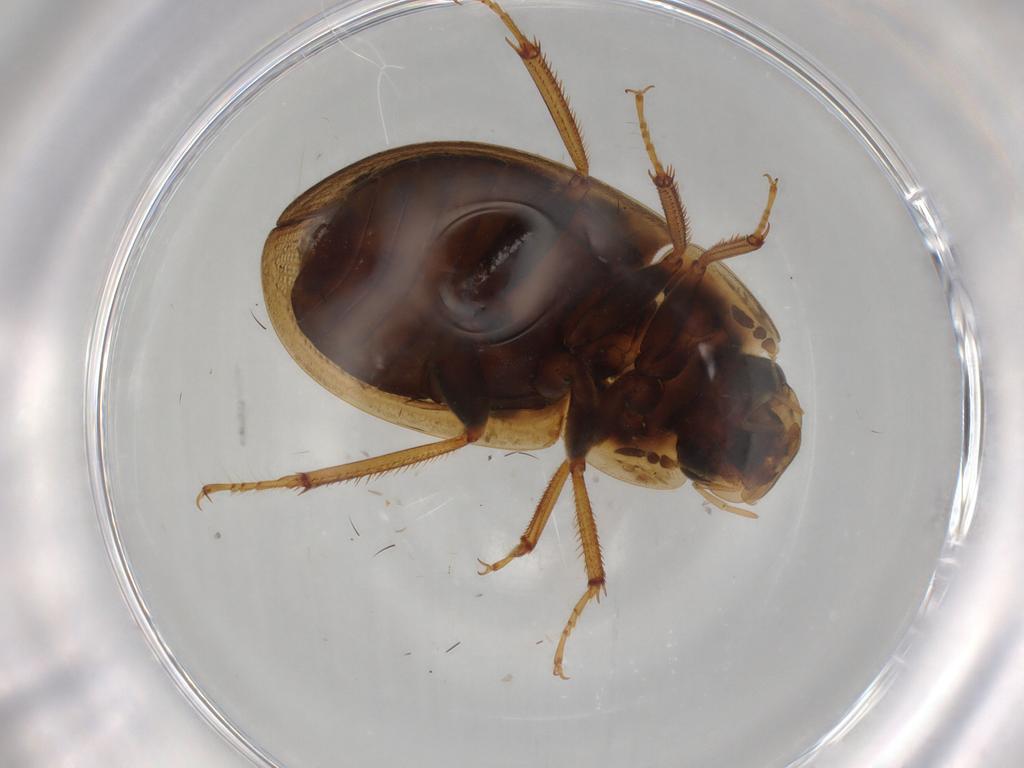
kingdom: Animalia
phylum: Arthropoda
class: Insecta
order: Coleoptera
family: Hydrophilidae
